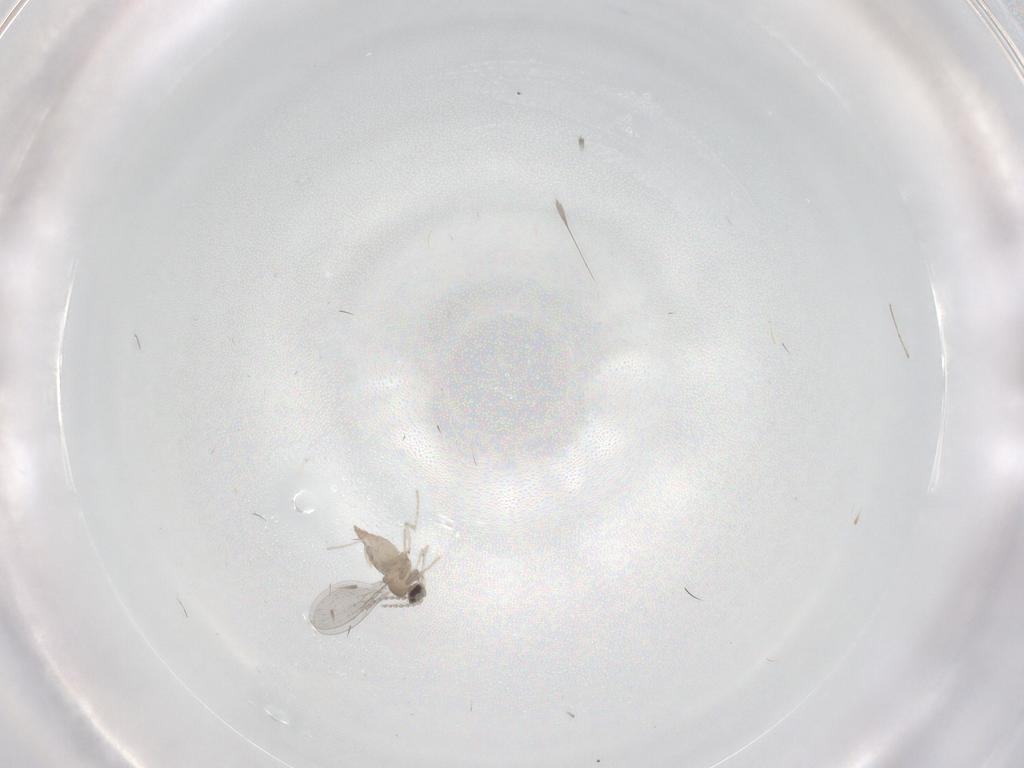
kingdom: Animalia
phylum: Arthropoda
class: Insecta
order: Diptera
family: Cecidomyiidae
